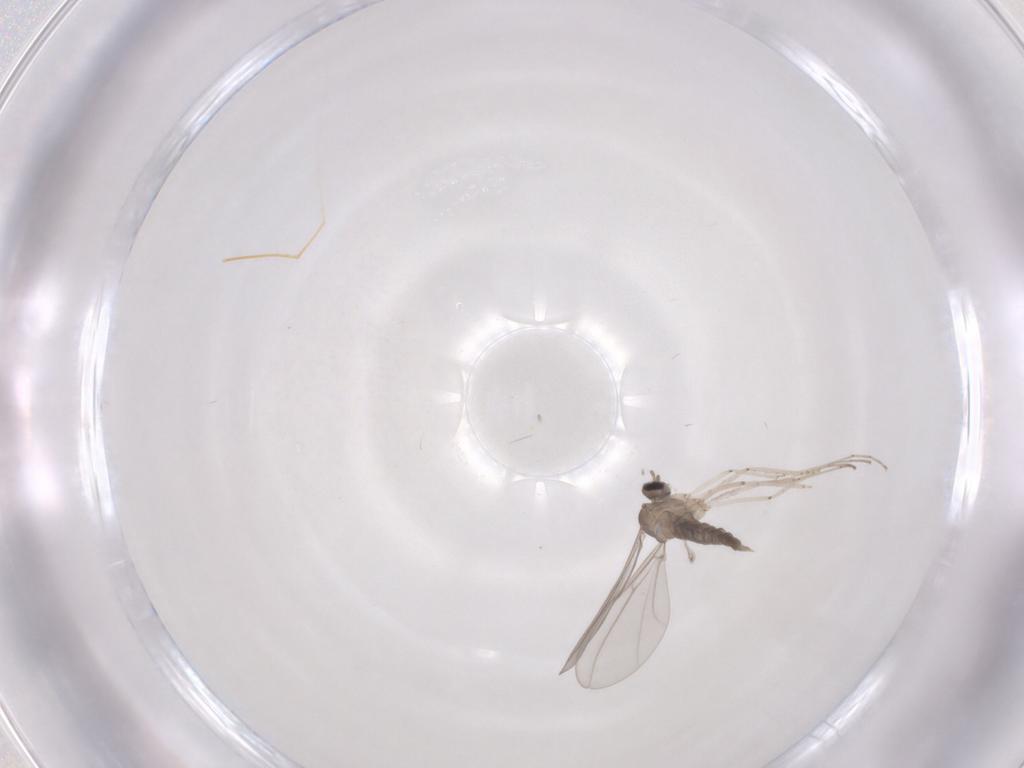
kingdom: Animalia
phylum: Arthropoda
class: Insecta
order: Diptera
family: Cecidomyiidae
